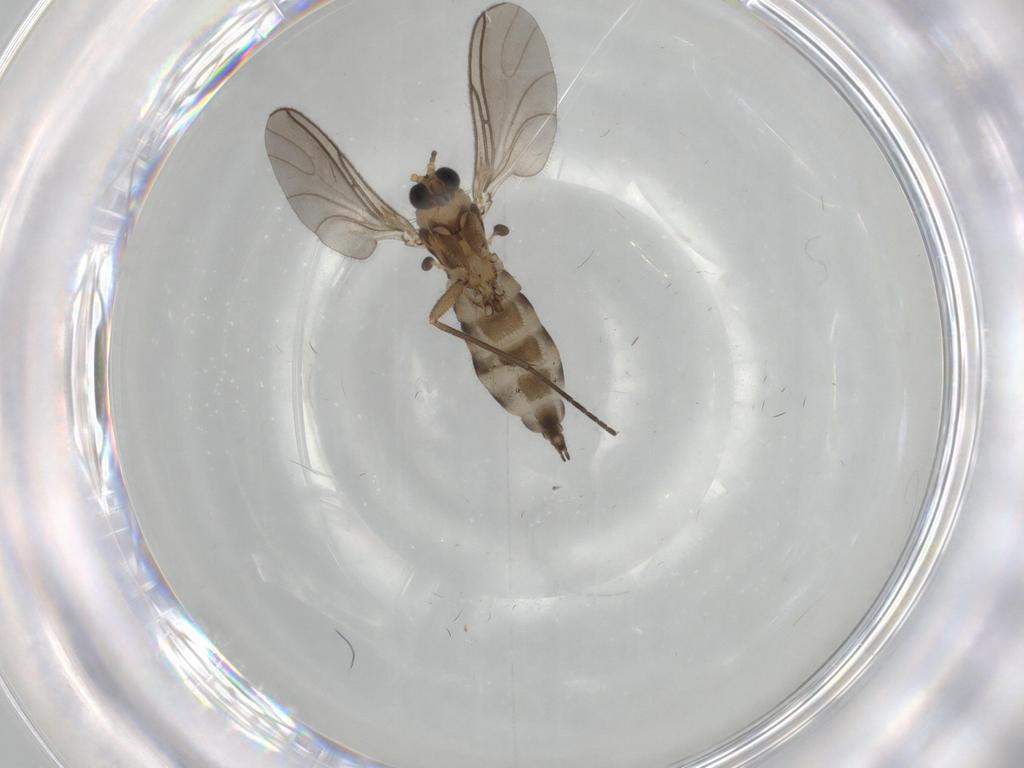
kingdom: Animalia
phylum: Arthropoda
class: Insecta
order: Diptera
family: Sciaridae
